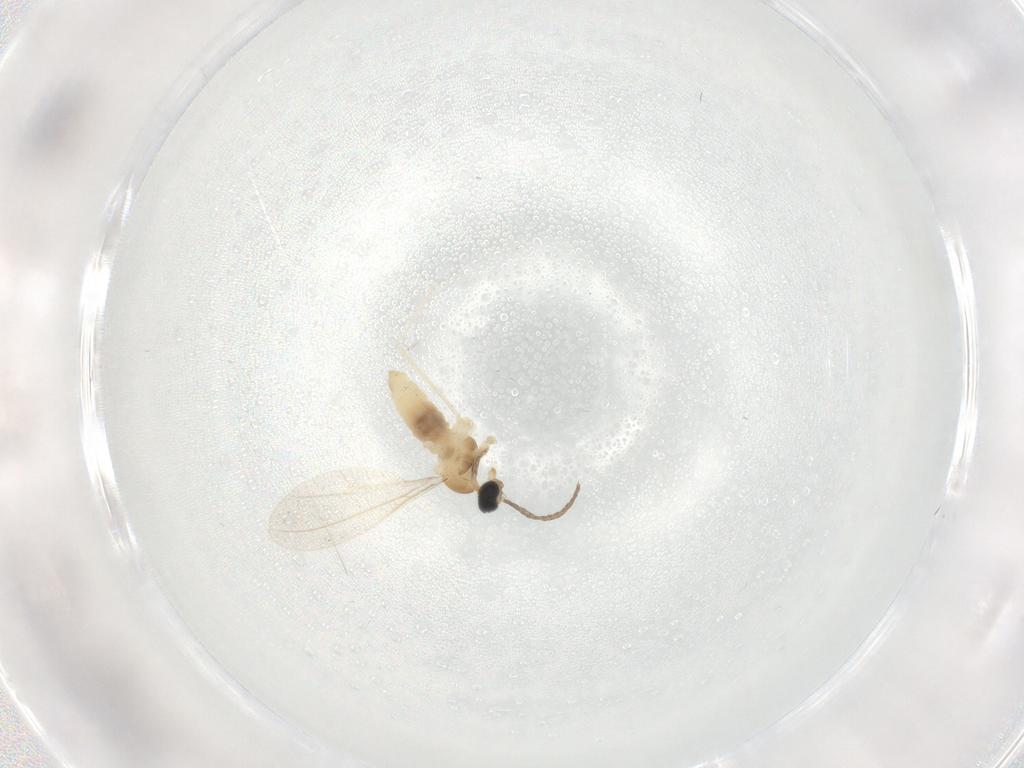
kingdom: Animalia
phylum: Arthropoda
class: Insecta
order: Diptera
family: Cecidomyiidae
